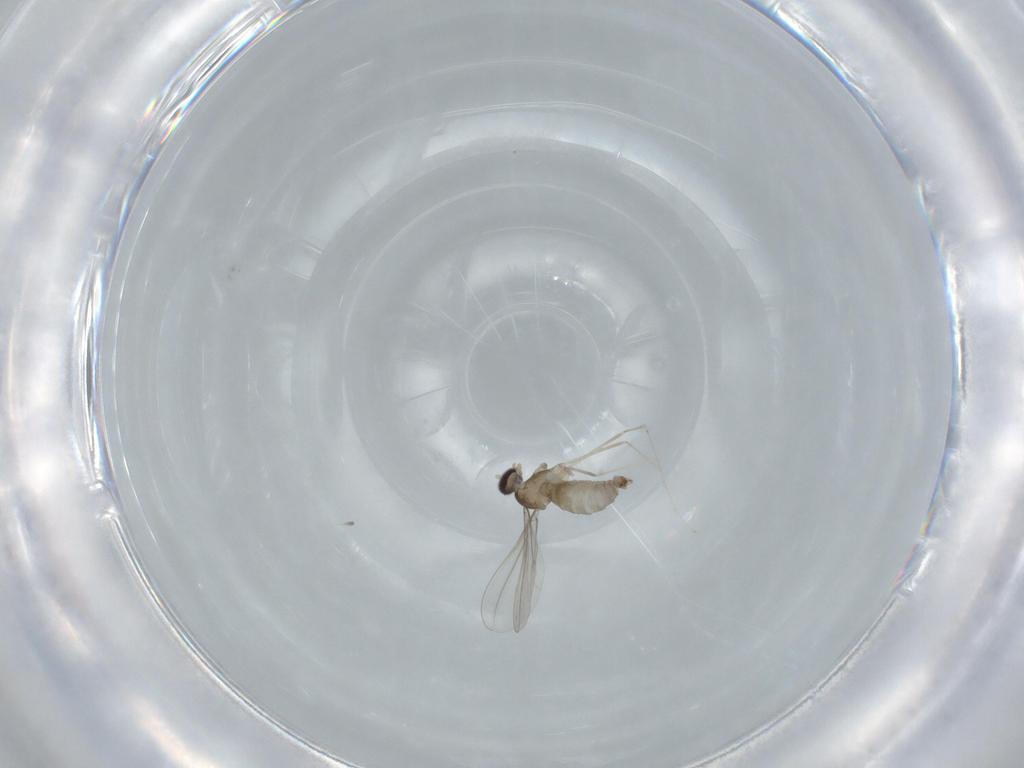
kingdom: Animalia
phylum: Arthropoda
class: Insecta
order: Diptera
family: Cecidomyiidae
